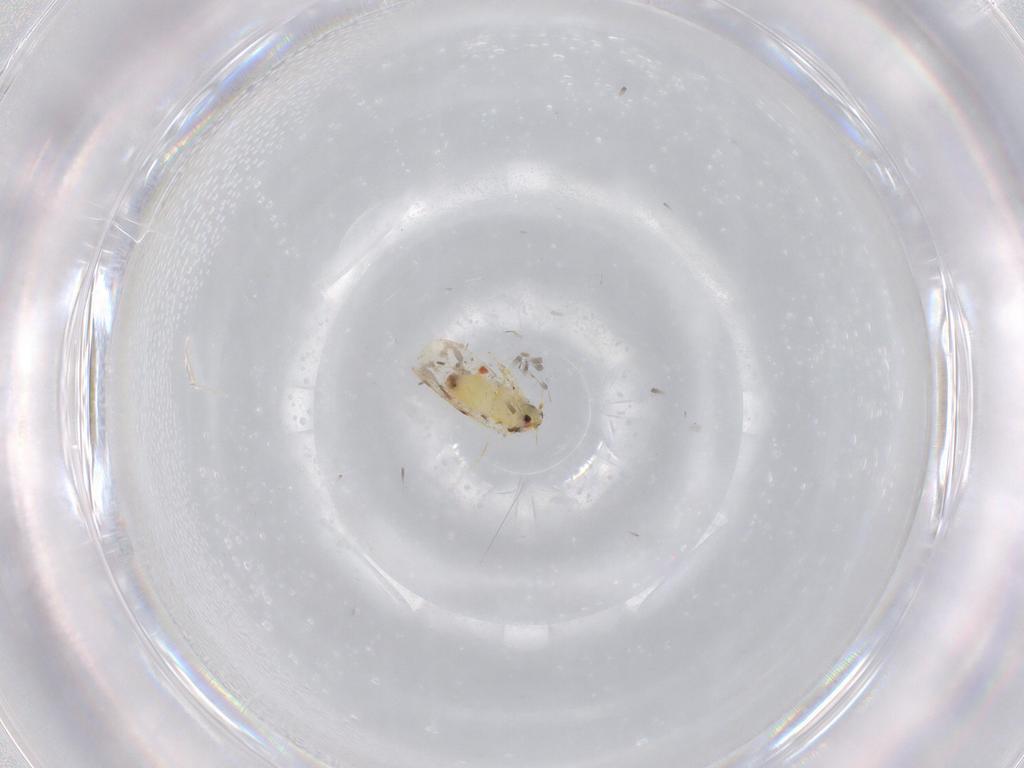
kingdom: Animalia
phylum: Arthropoda
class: Insecta
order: Hemiptera
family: Aleyrodidae
